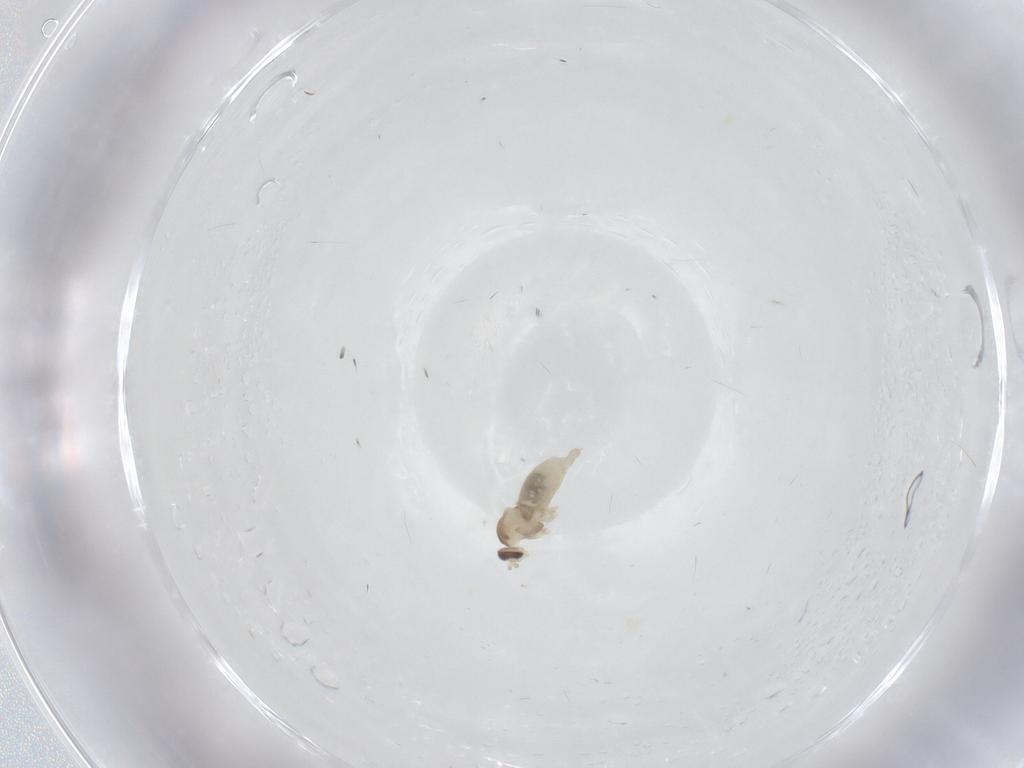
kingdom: Animalia
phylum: Arthropoda
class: Insecta
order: Diptera
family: Cecidomyiidae
